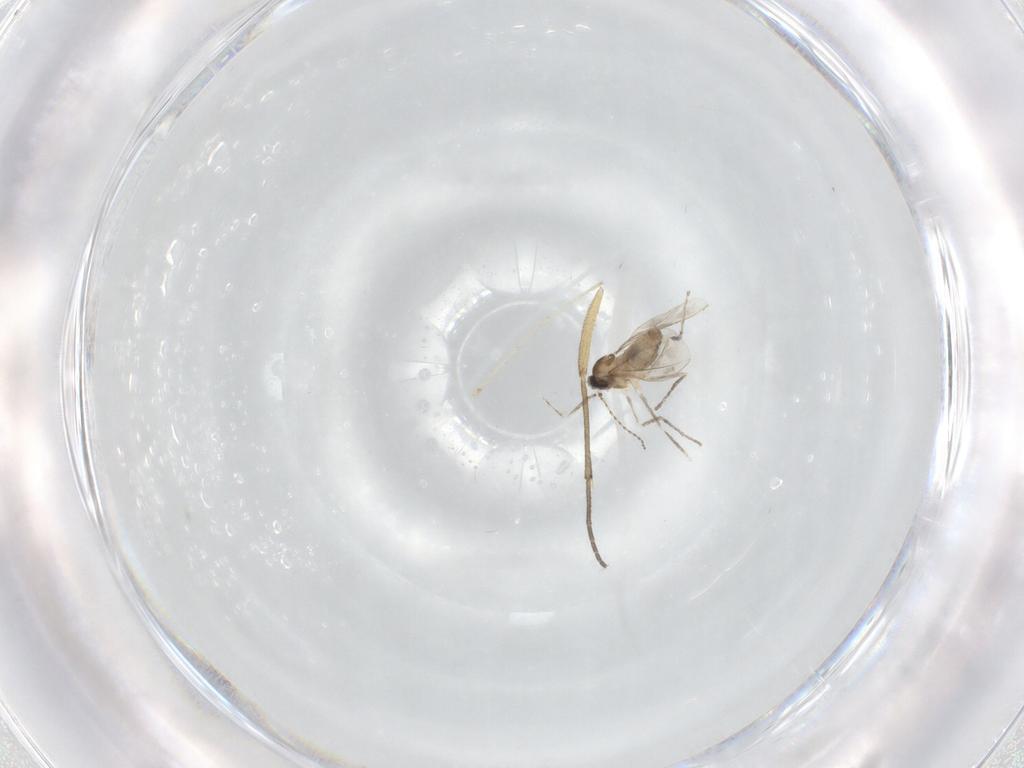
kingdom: Animalia
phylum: Arthropoda
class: Insecta
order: Diptera
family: Cecidomyiidae
